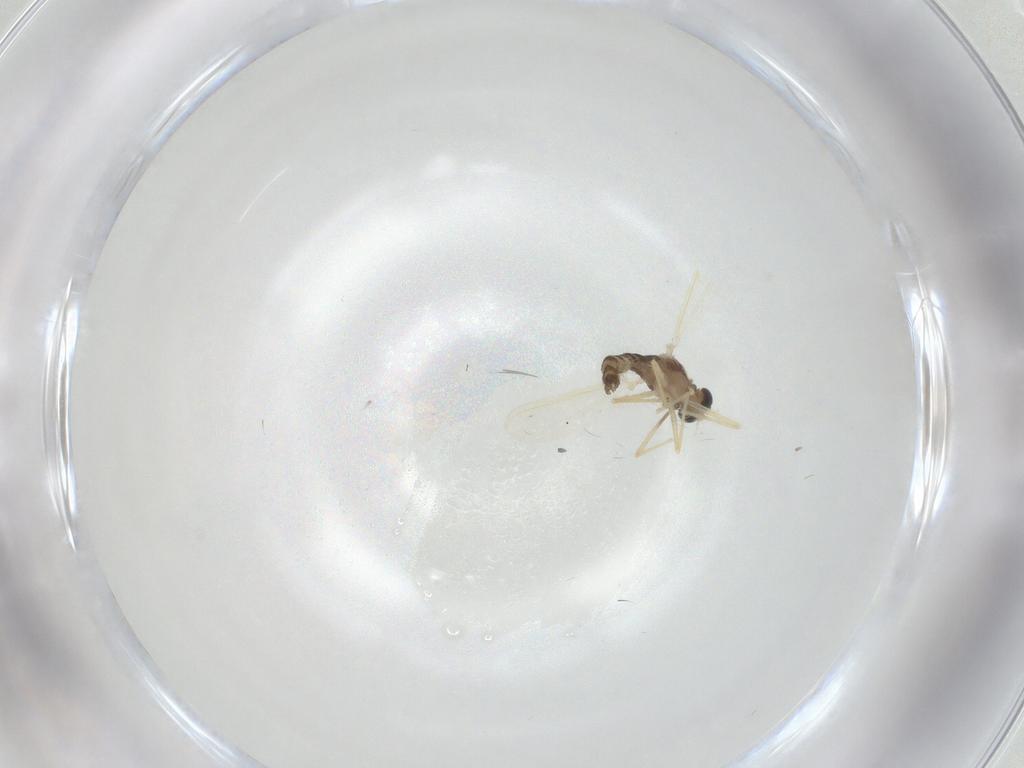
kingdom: Animalia
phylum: Arthropoda
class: Insecta
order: Diptera
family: Chironomidae
